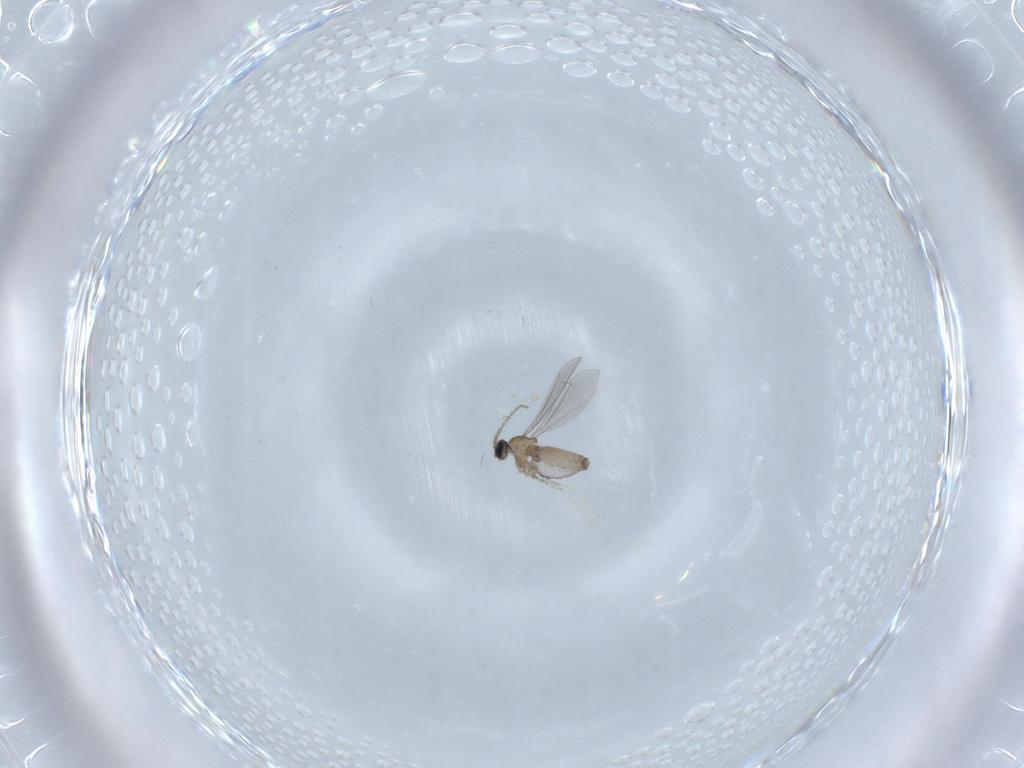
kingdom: Animalia
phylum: Arthropoda
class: Insecta
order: Diptera
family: Cecidomyiidae
